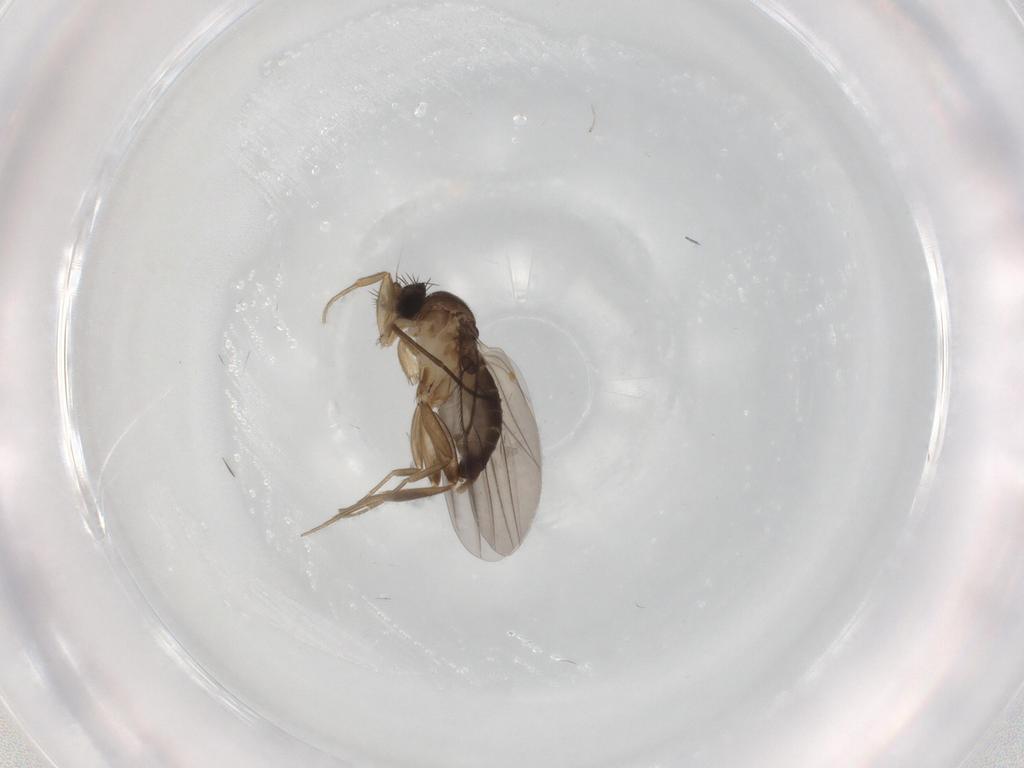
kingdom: Animalia
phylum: Arthropoda
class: Insecta
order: Diptera
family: Phoridae
